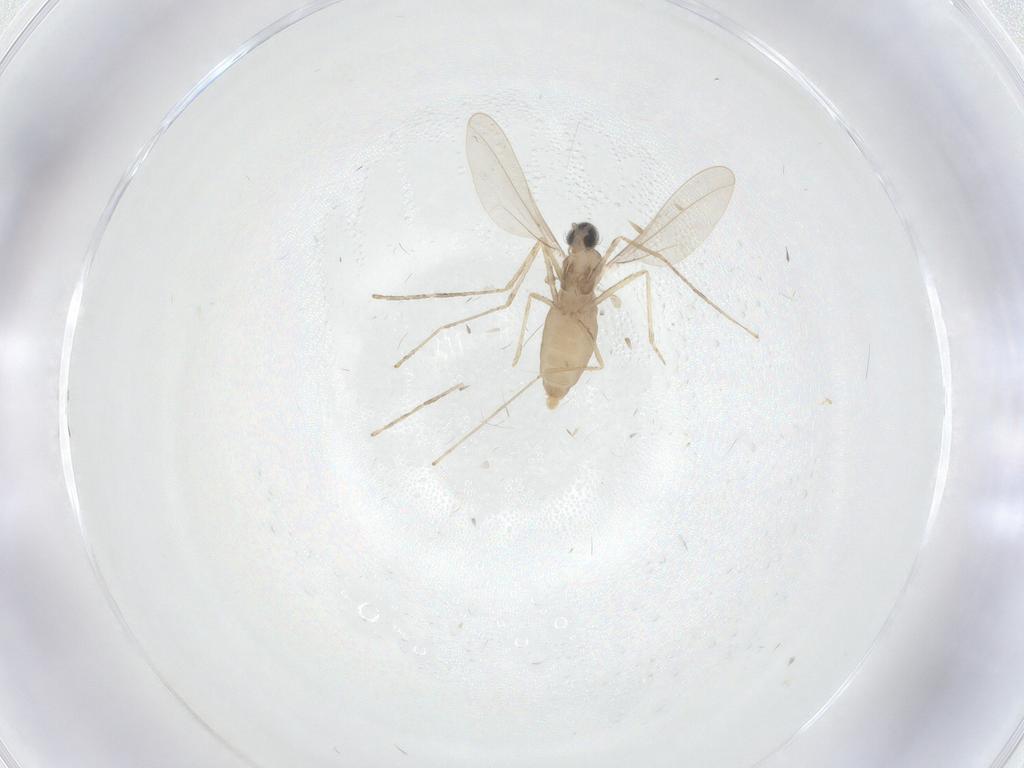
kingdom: Animalia
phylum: Arthropoda
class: Insecta
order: Diptera
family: Cecidomyiidae
